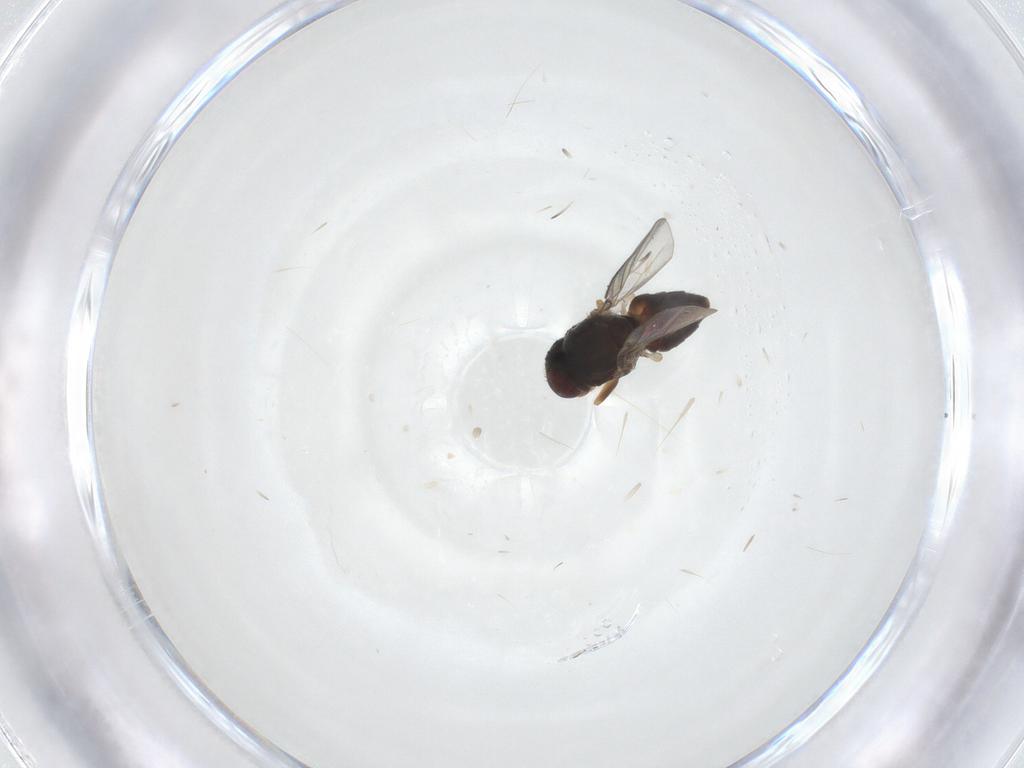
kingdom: Animalia
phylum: Arthropoda
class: Insecta
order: Diptera
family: Chloropidae
